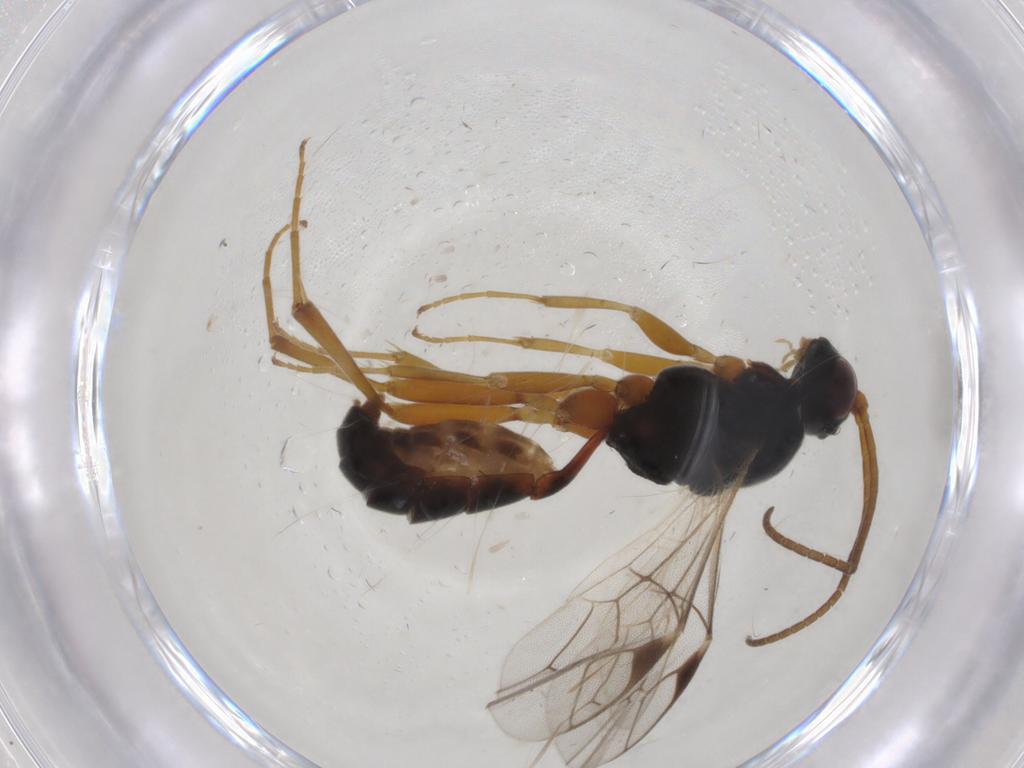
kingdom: Animalia
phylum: Arthropoda
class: Insecta
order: Hymenoptera
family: Ichneumonidae
